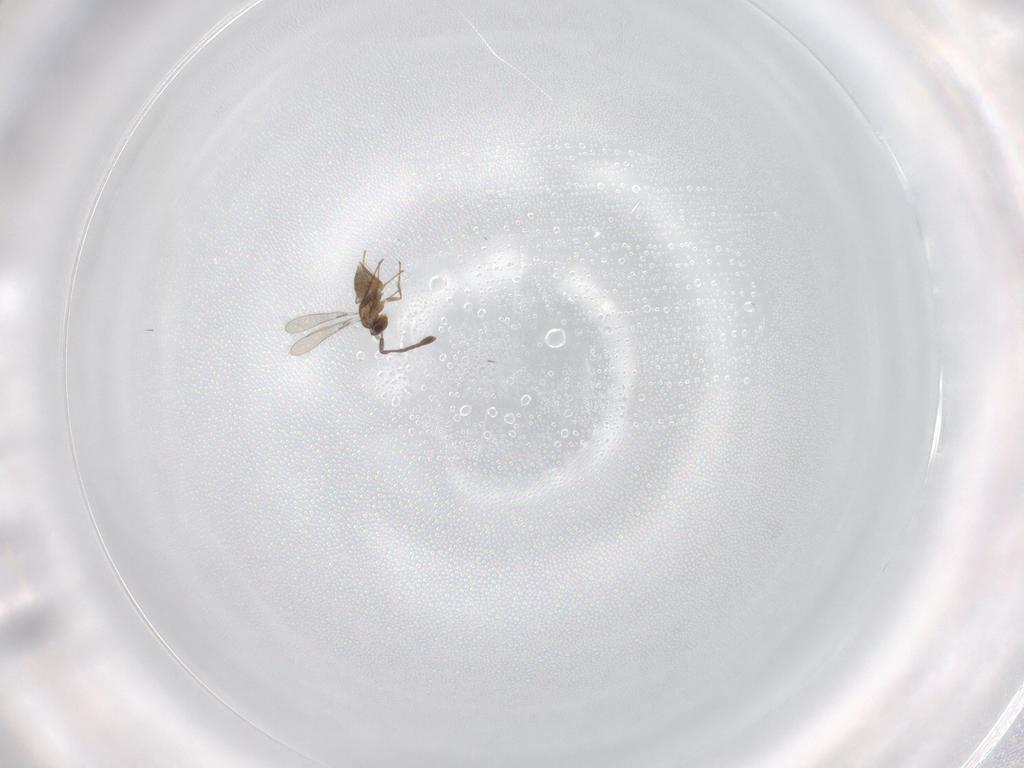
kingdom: Animalia
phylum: Arthropoda
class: Insecta
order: Hymenoptera
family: Mymaridae
